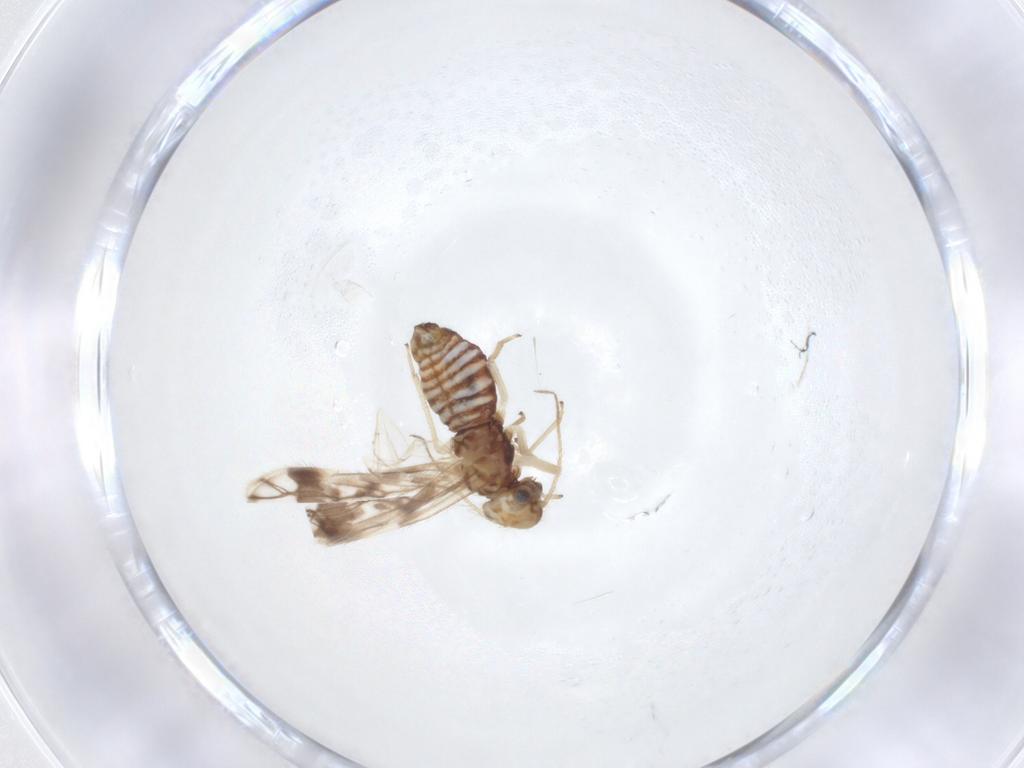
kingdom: Animalia
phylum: Arthropoda
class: Insecta
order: Psocodea
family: Pseudocaeciliidae
